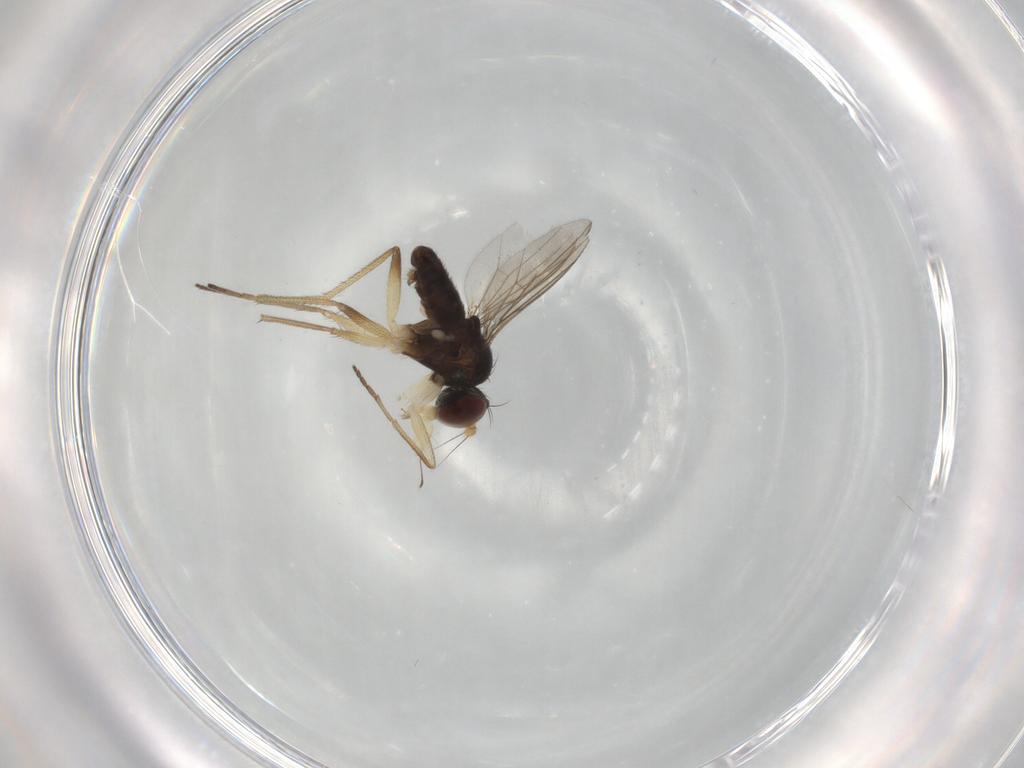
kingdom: Animalia
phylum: Arthropoda
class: Insecta
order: Diptera
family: Dolichopodidae
